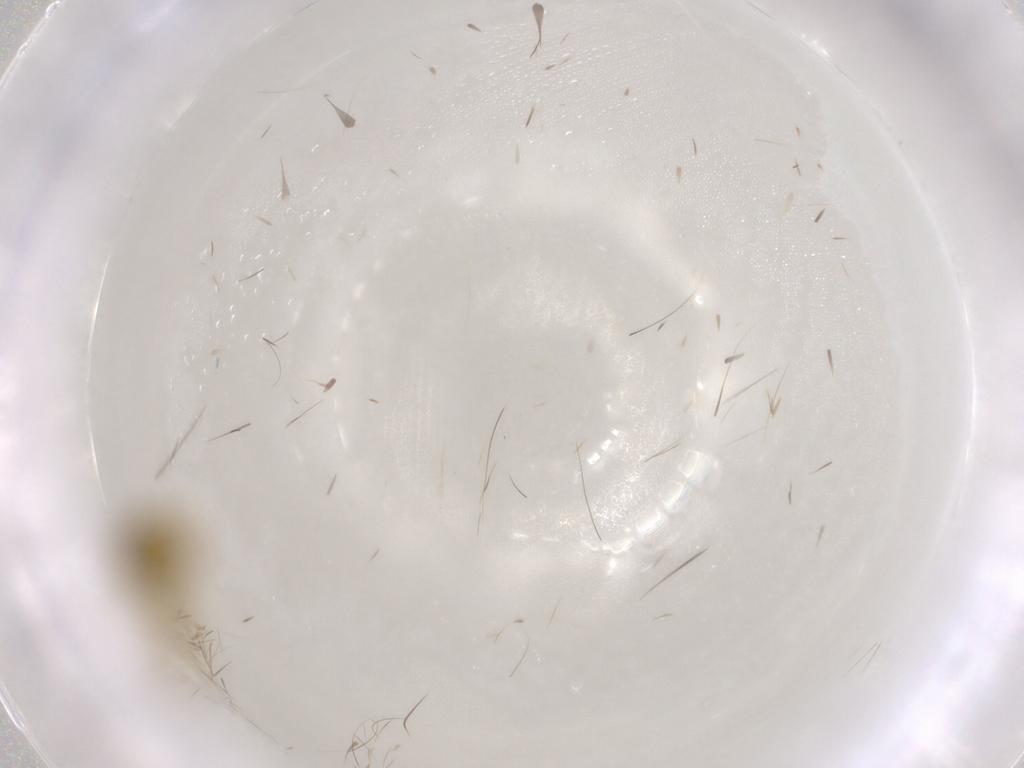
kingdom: Animalia
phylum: Arthropoda
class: Insecta
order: Hemiptera
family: Cicadellidae
